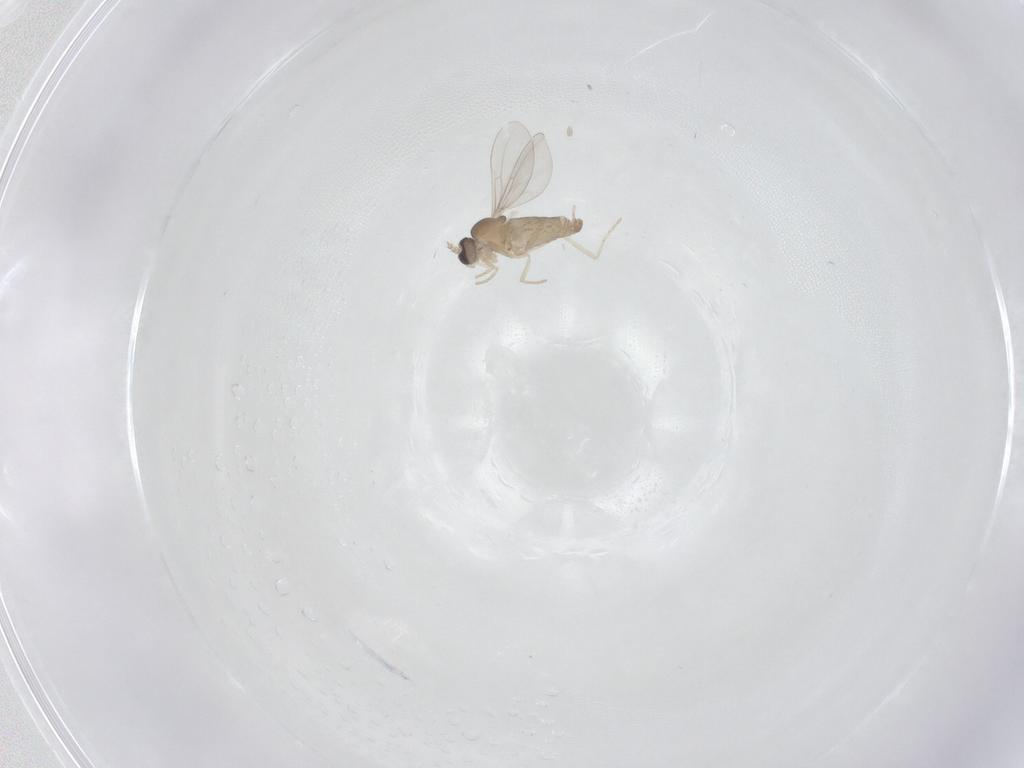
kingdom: Animalia
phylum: Arthropoda
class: Insecta
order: Diptera
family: Cecidomyiidae
